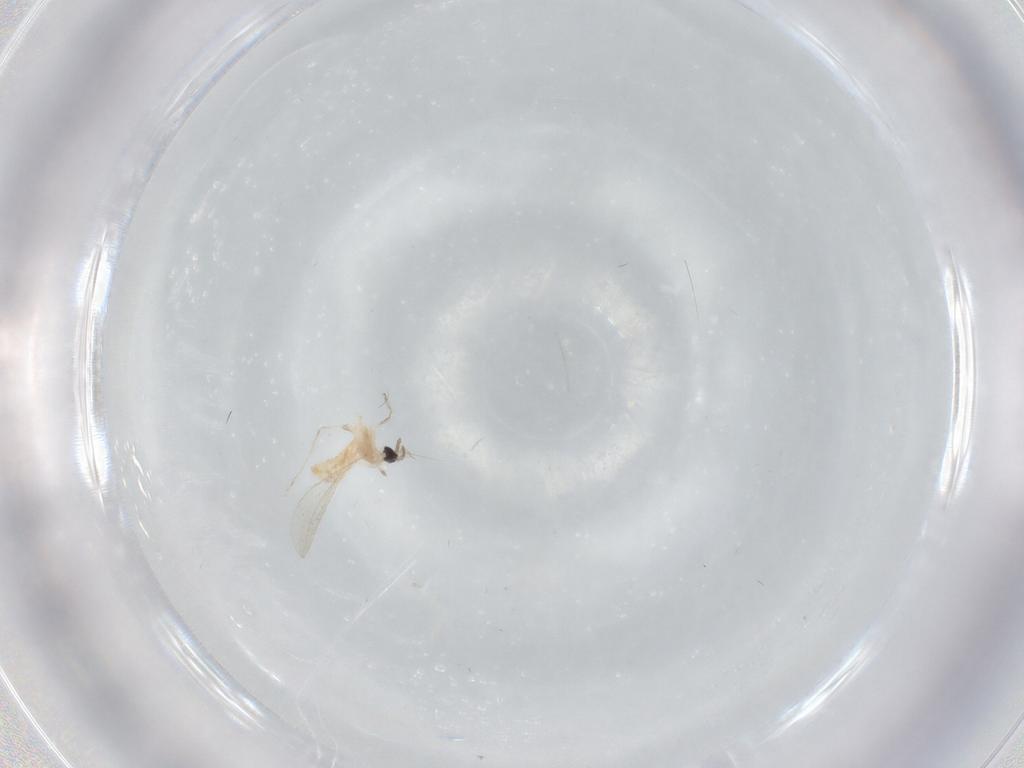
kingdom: Animalia
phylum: Arthropoda
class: Insecta
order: Diptera
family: Cecidomyiidae
